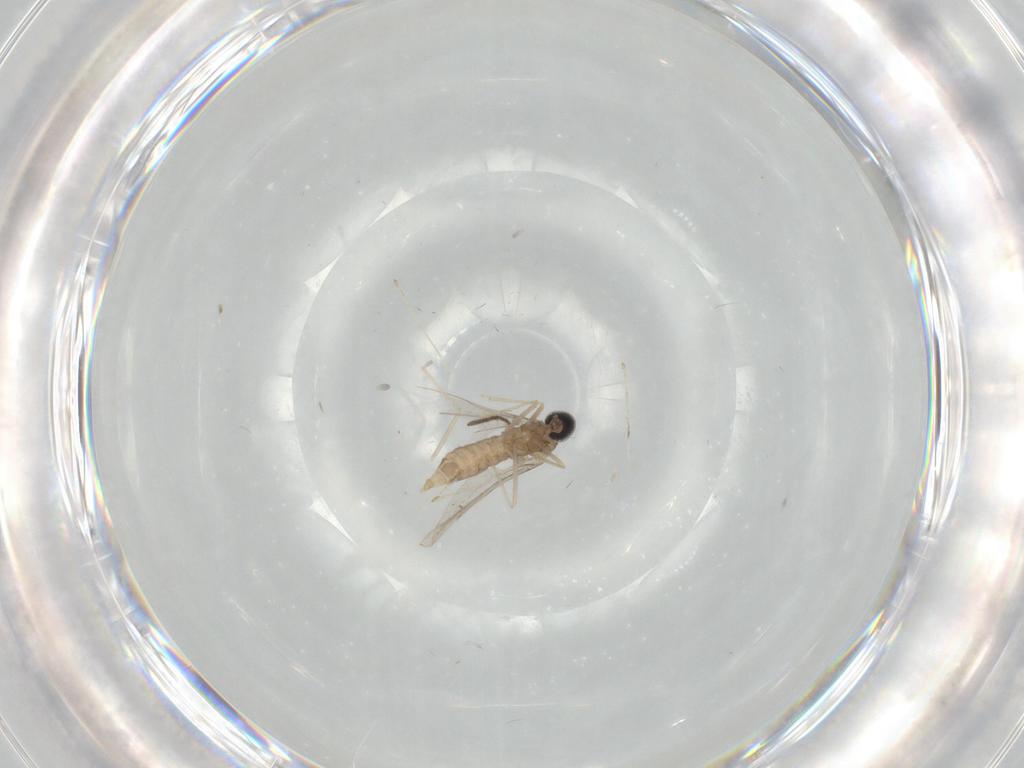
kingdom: Animalia
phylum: Arthropoda
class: Insecta
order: Diptera
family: Cecidomyiidae
